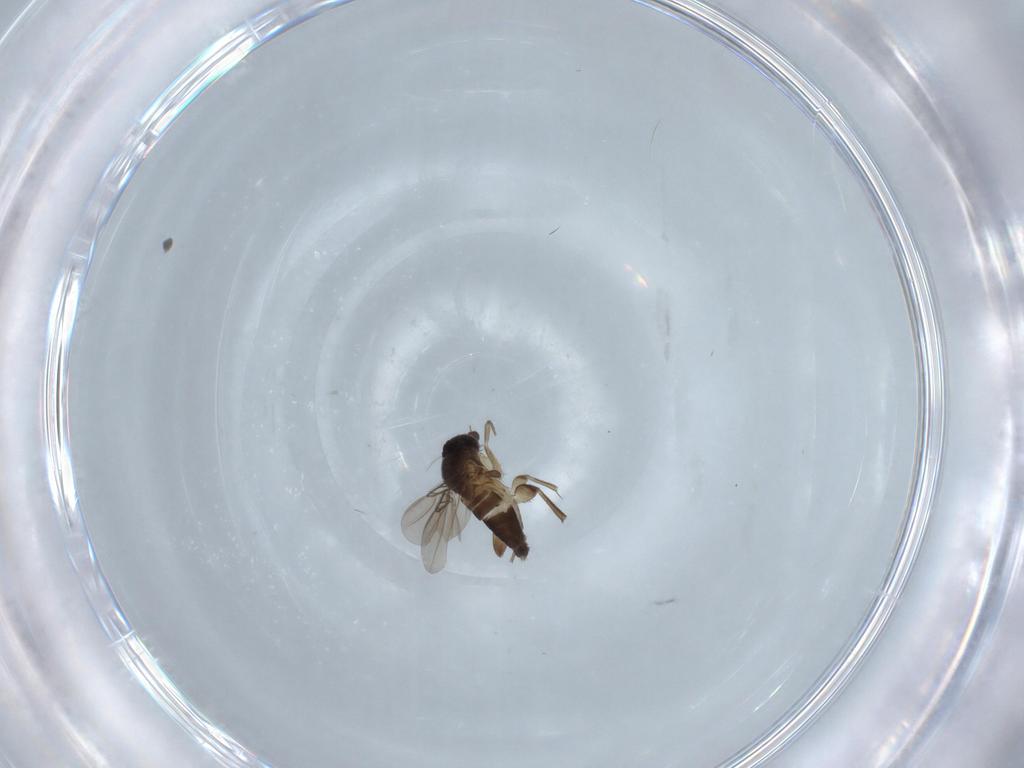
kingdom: Animalia
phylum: Arthropoda
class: Insecta
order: Diptera
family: Phoridae
